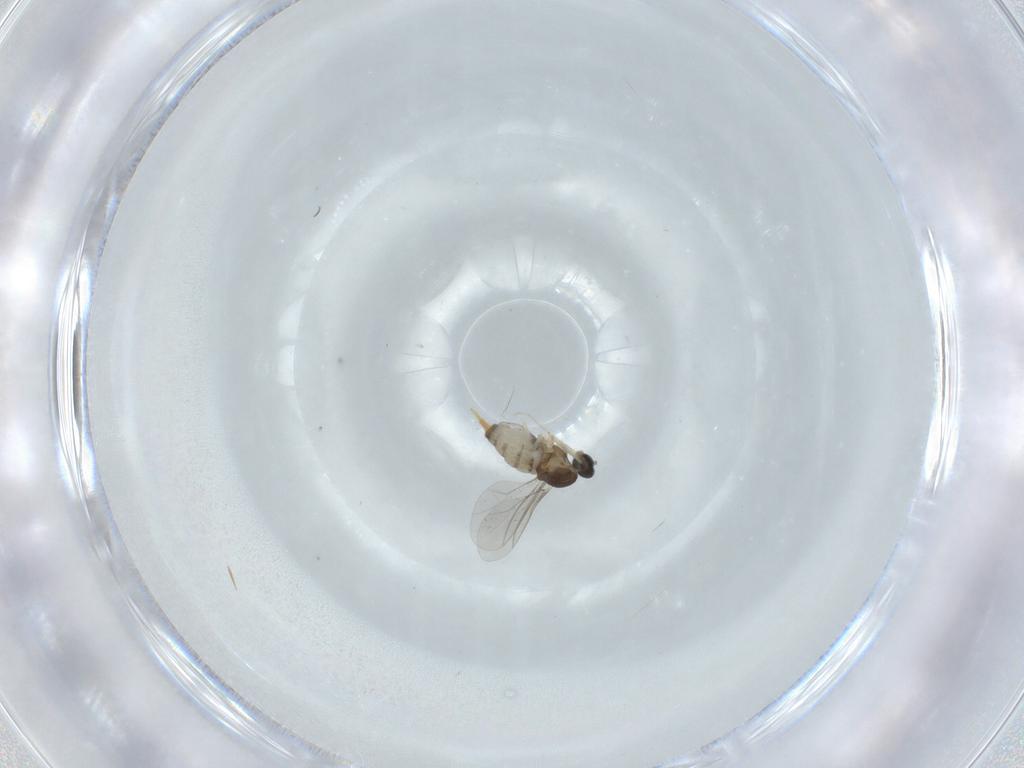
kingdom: Animalia
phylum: Arthropoda
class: Insecta
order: Diptera
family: Cecidomyiidae
